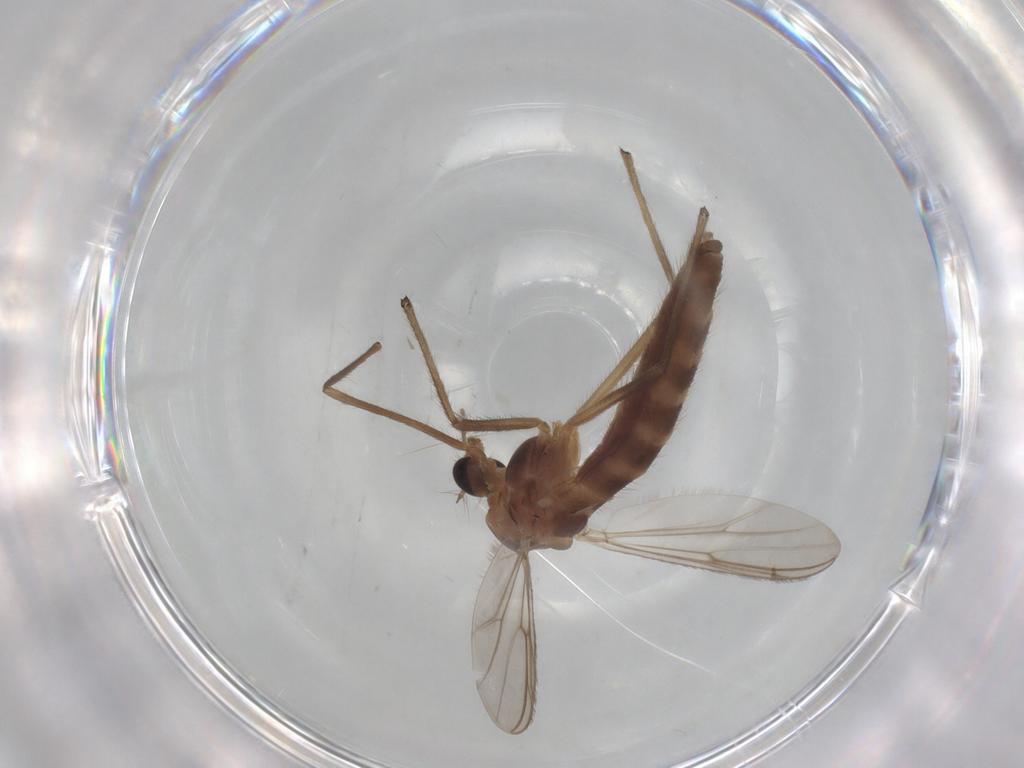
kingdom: Animalia
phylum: Arthropoda
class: Insecta
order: Diptera
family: Chironomidae
